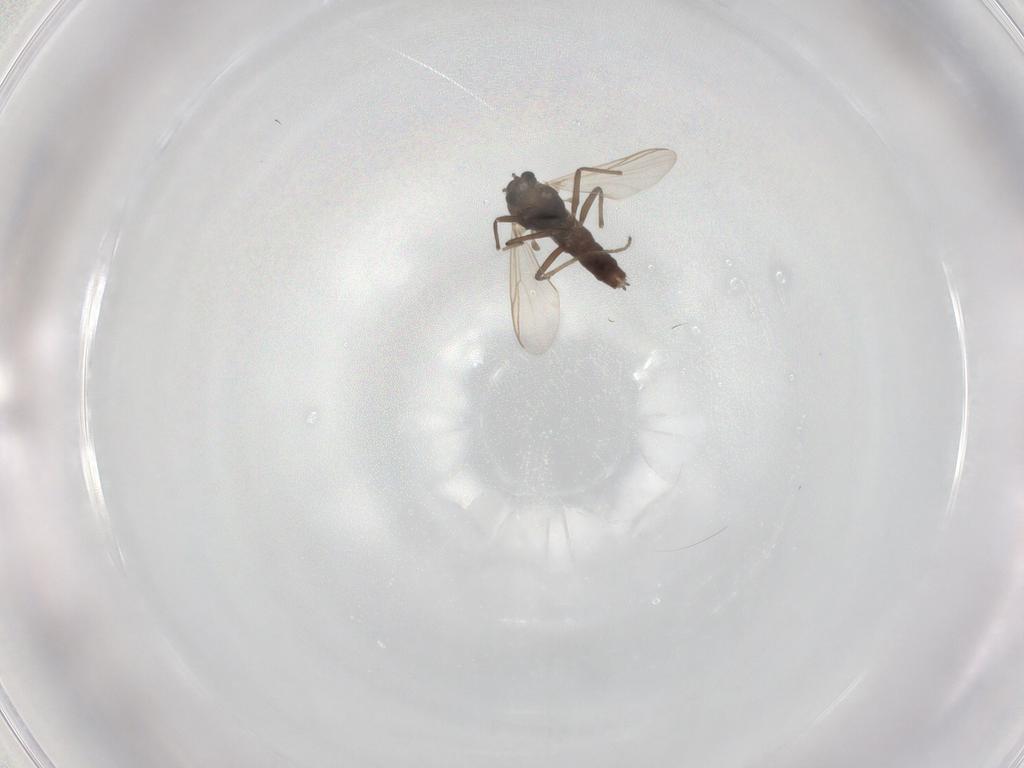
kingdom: Animalia
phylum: Arthropoda
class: Insecta
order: Diptera
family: Chironomidae
